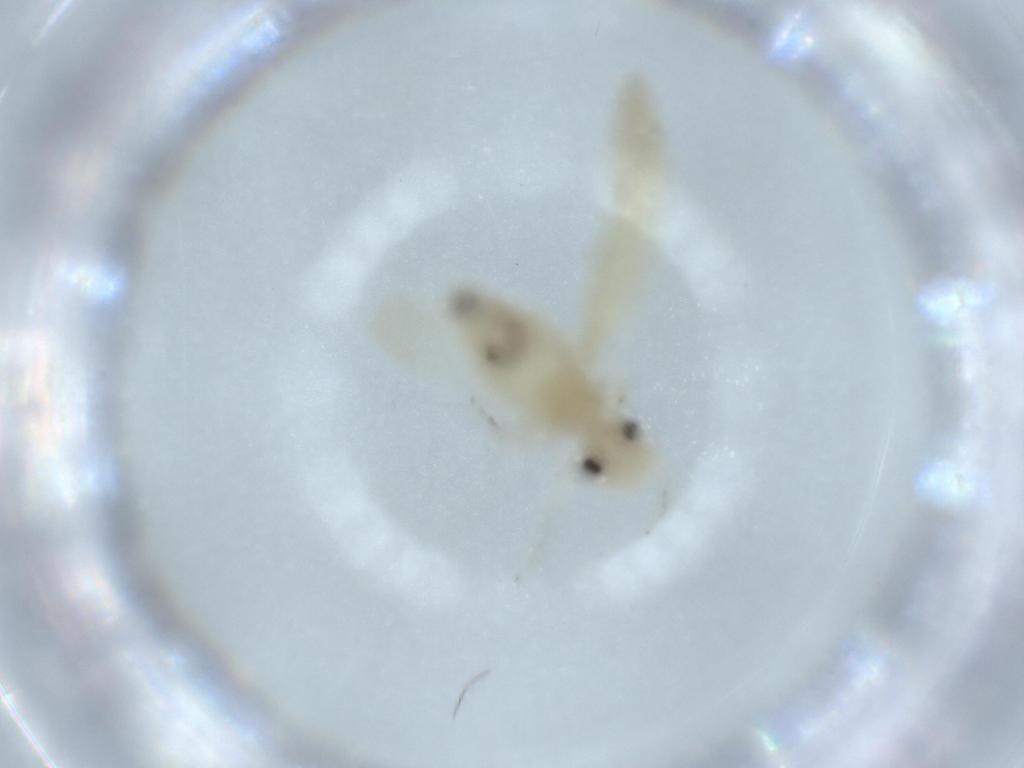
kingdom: Animalia
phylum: Arthropoda
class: Insecta
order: Psocodea
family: Caeciliusidae
